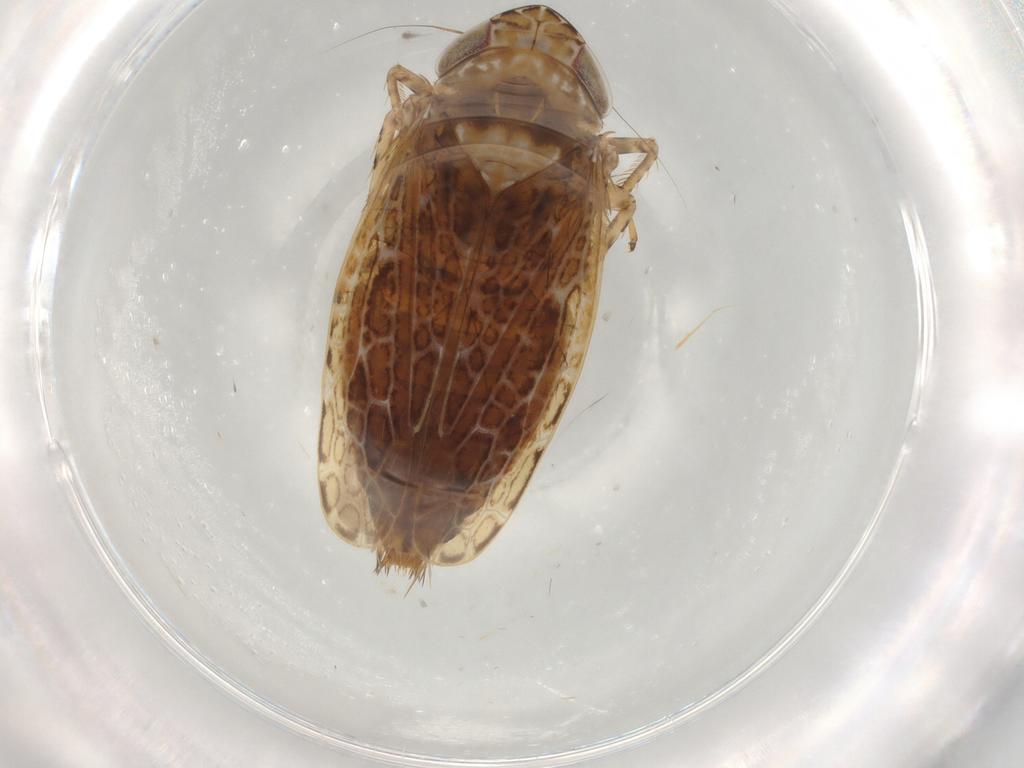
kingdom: Animalia
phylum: Arthropoda
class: Insecta
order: Hemiptera
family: Cicadellidae
